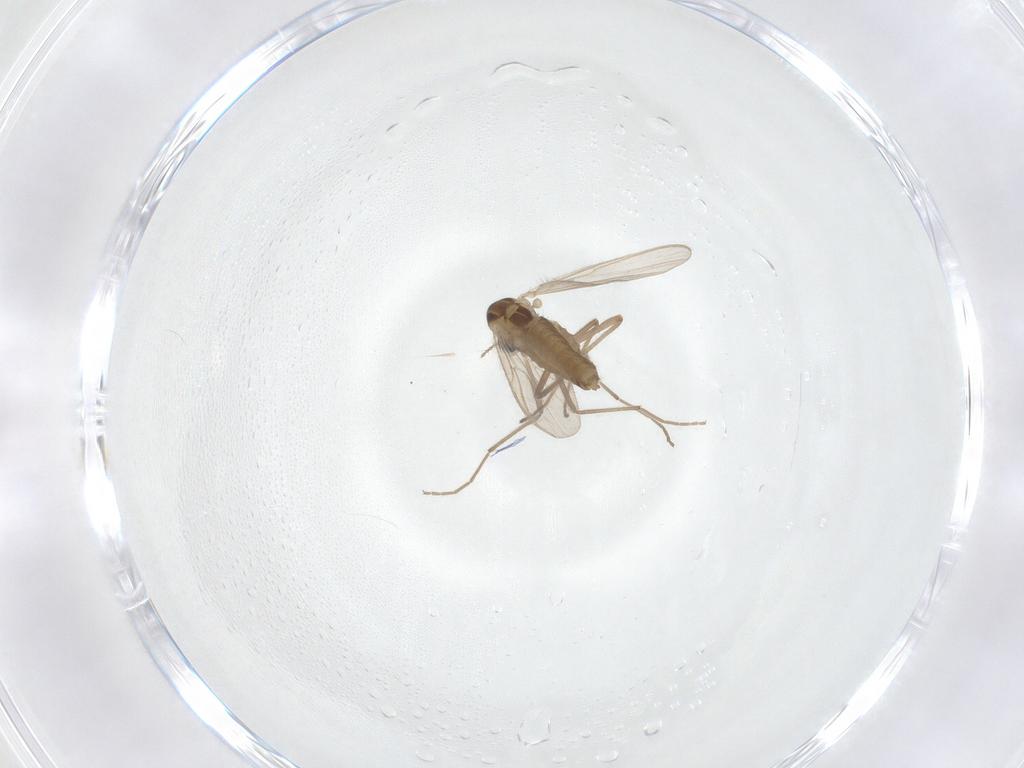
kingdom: Animalia
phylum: Arthropoda
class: Insecta
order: Diptera
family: Chironomidae
